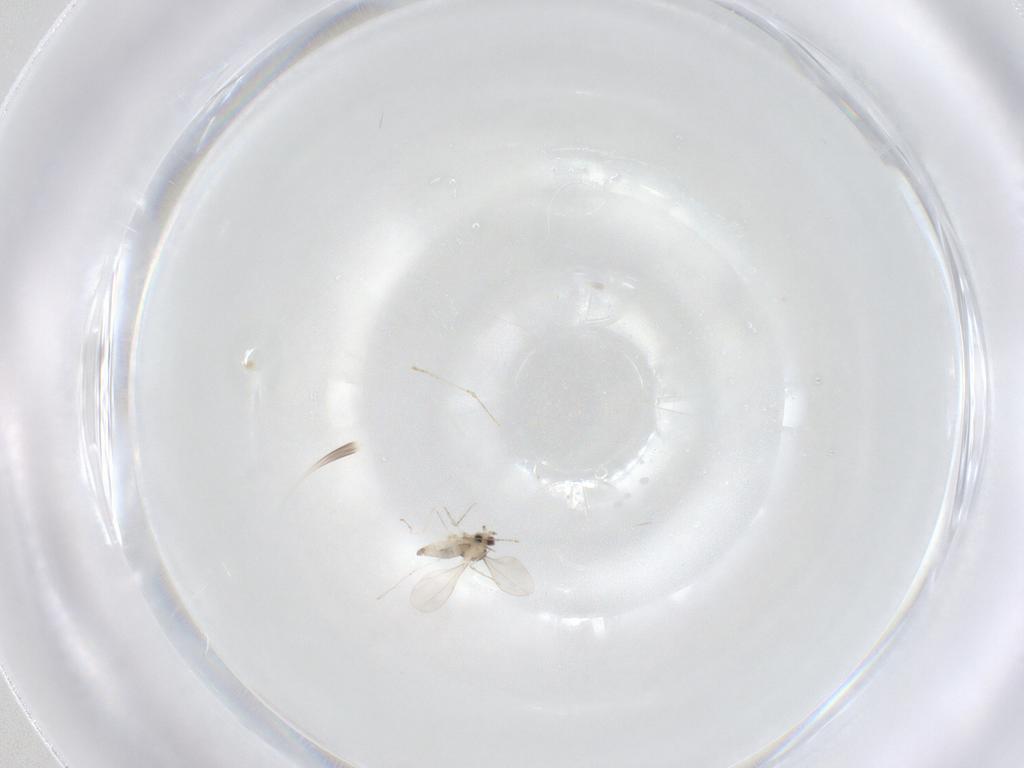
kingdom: Animalia
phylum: Arthropoda
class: Insecta
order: Diptera
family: Cecidomyiidae
